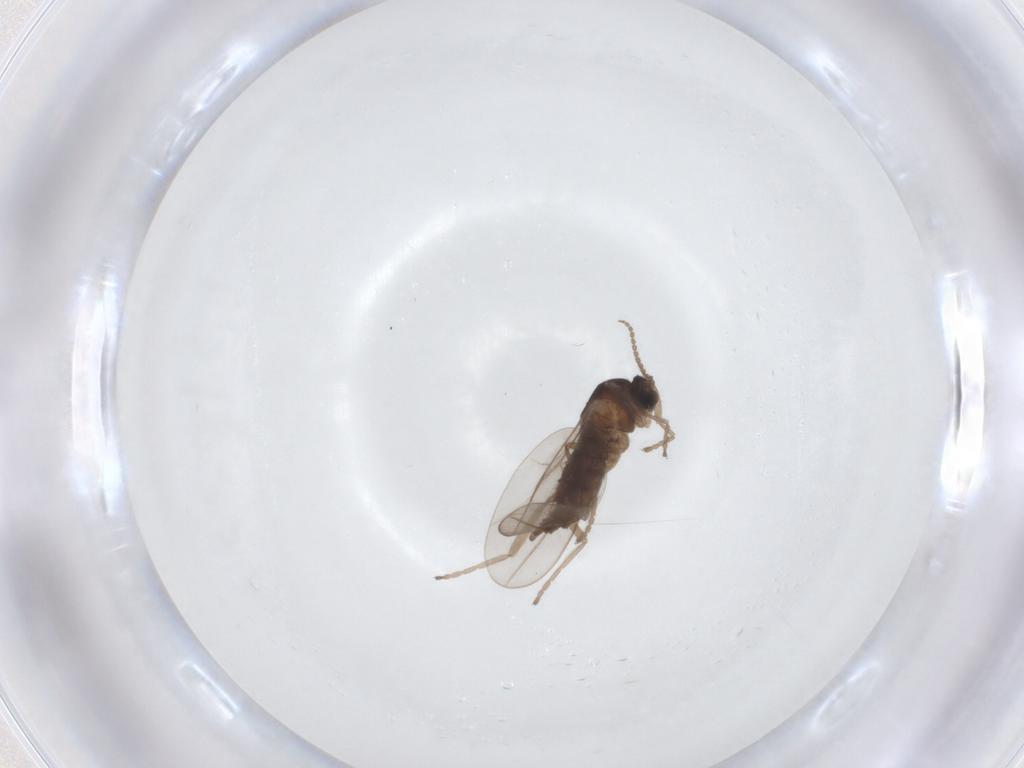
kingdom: Animalia
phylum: Arthropoda
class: Insecta
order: Diptera
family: Cecidomyiidae
